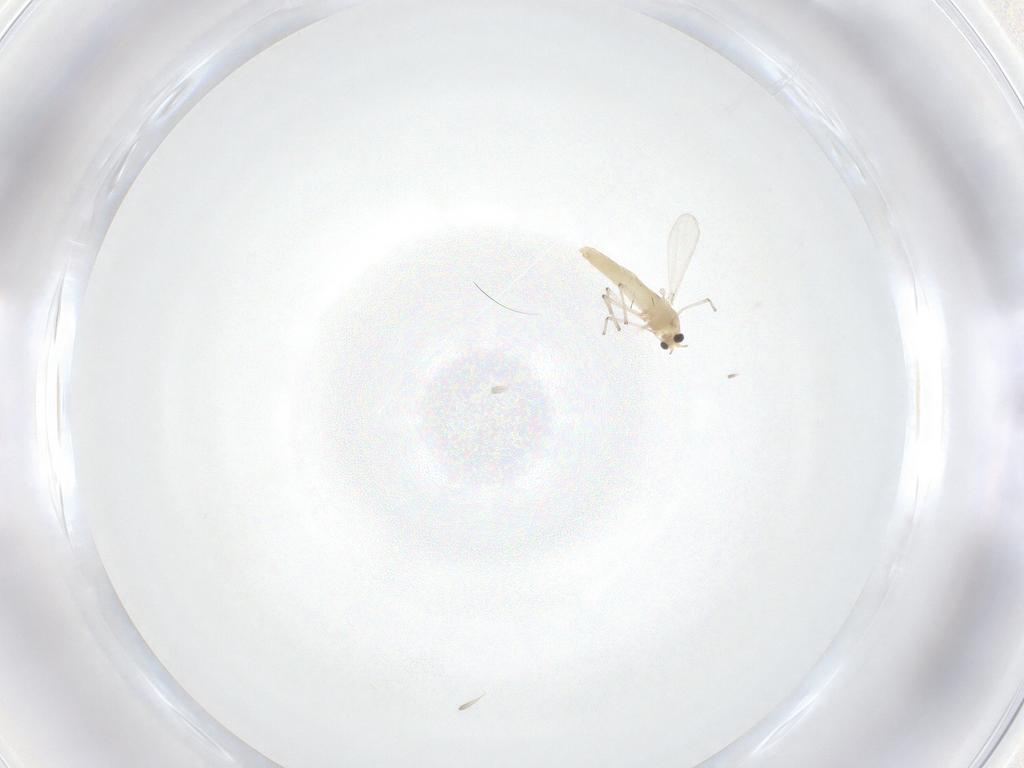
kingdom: Animalia
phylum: Arthropoda
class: Insecta
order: Diptera
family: Chironomidae
